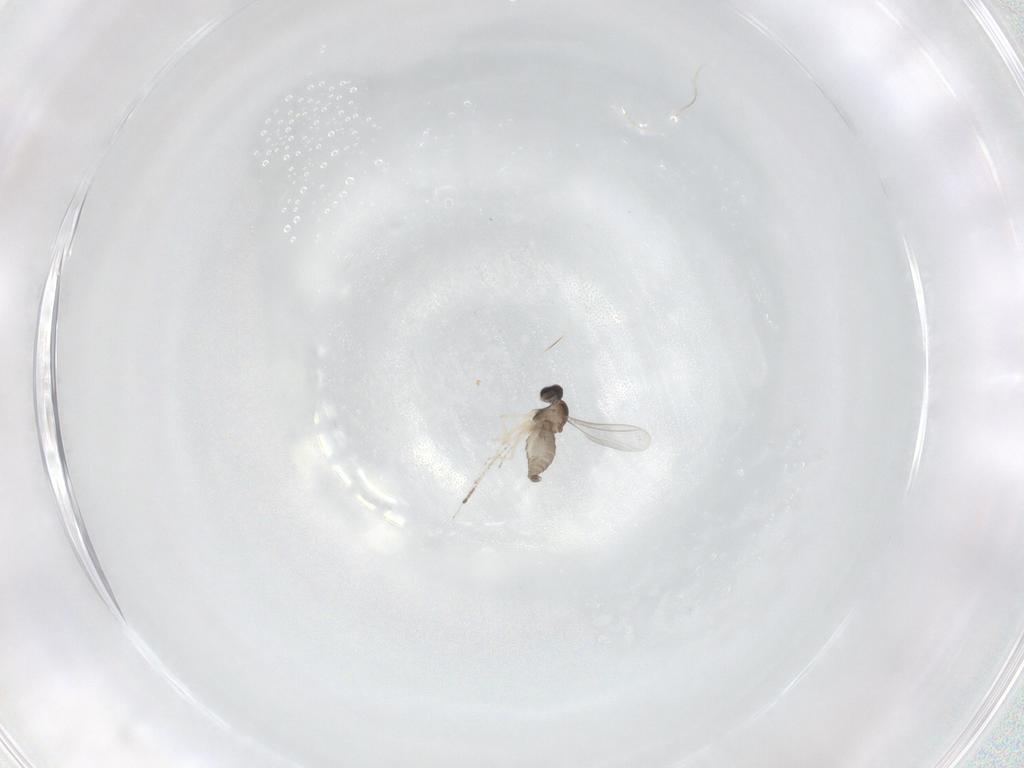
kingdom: Animalia
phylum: Arthropoda
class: Insecta
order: Diptera
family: Cecidomyiidae
